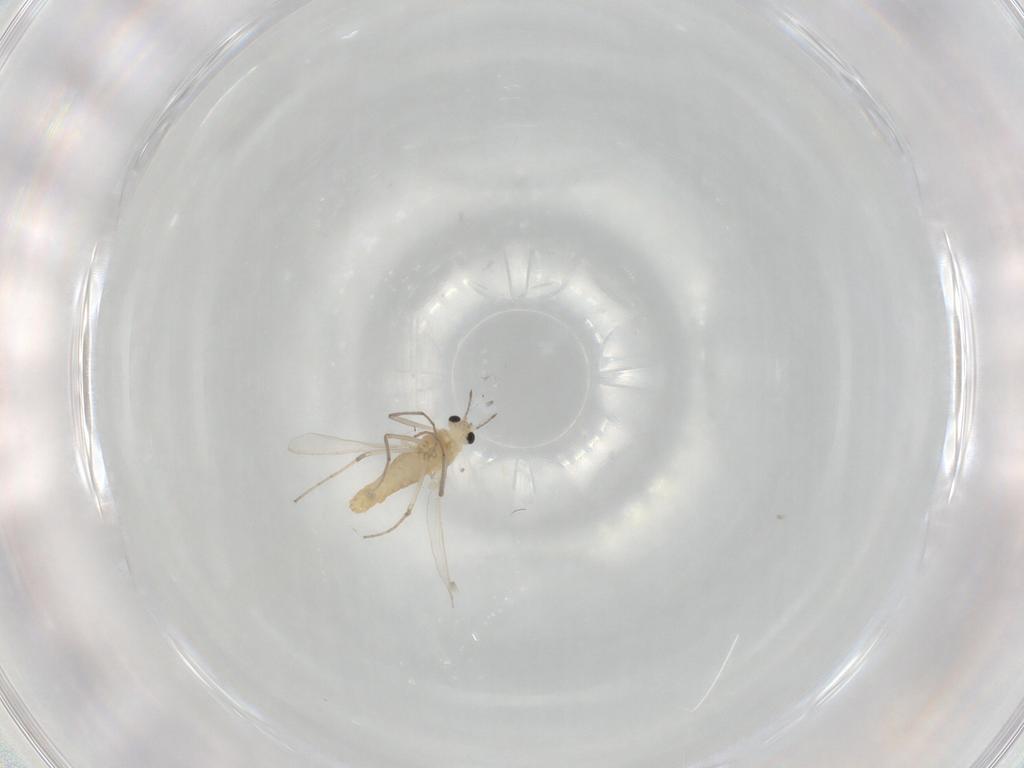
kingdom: Animalia
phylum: Arthropoda
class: Insecta
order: Diptera
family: Chironomidae
